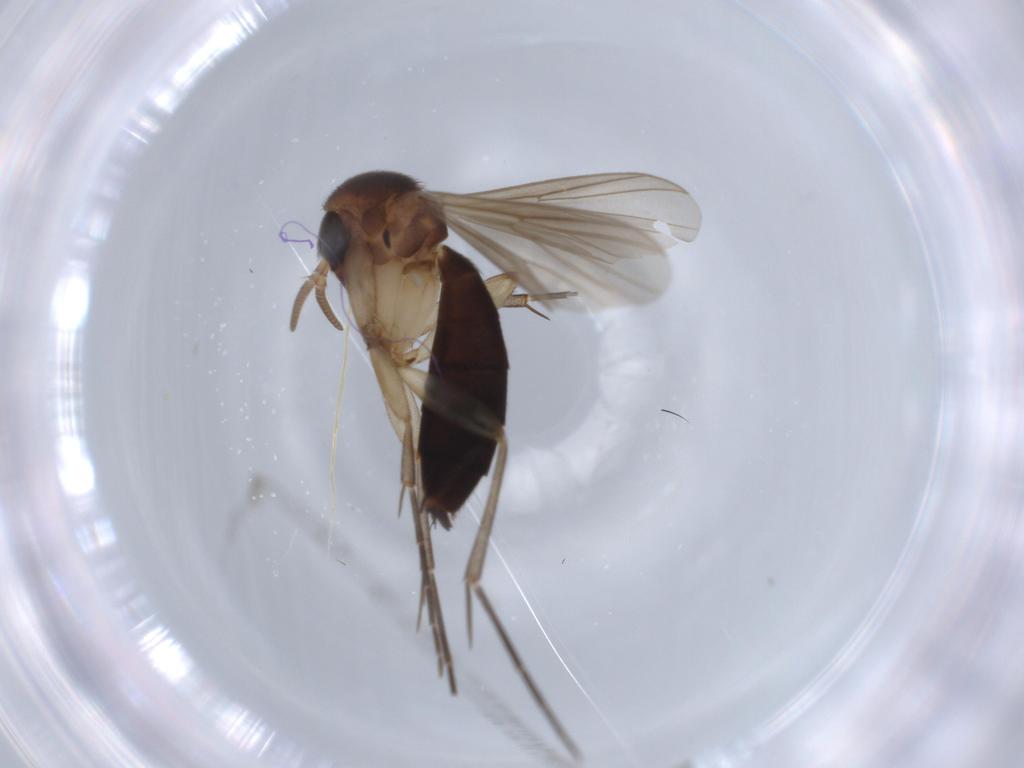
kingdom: Animalia
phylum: Arthropoda
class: Insecta
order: Diptera
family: Mycetophilidae
